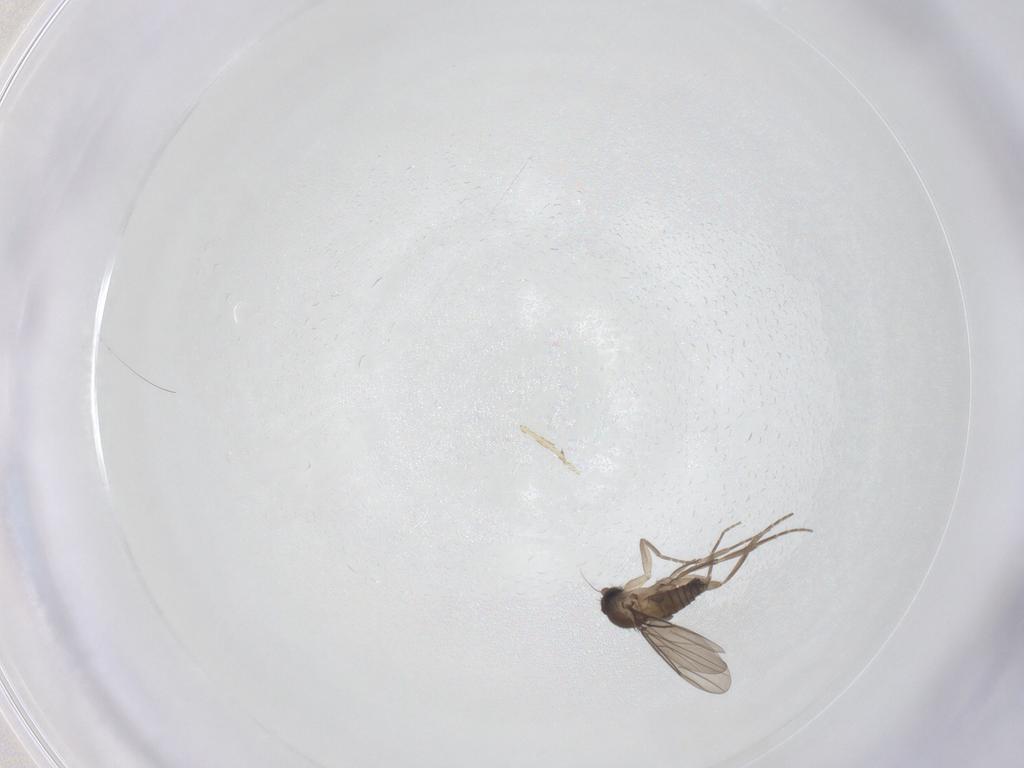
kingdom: Animalia
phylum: Arthropoda
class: Insecta
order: Diptera
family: Phoridae
